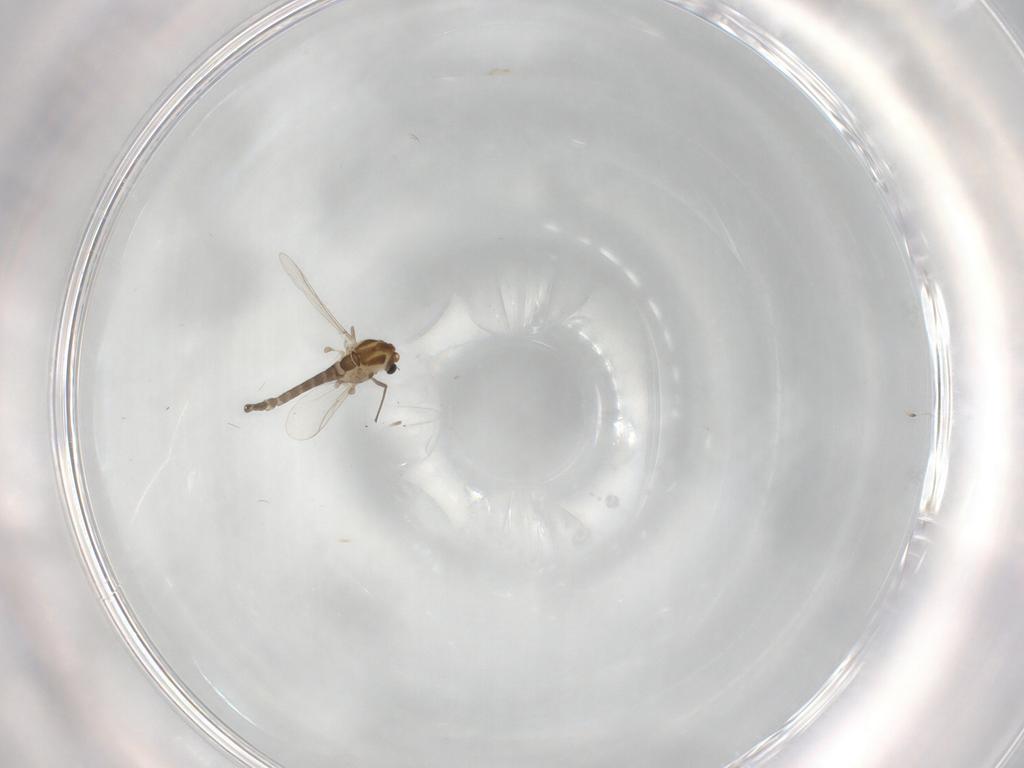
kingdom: Animalia
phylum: Arthropoda
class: Insecta
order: Diptera
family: Chironomidae
